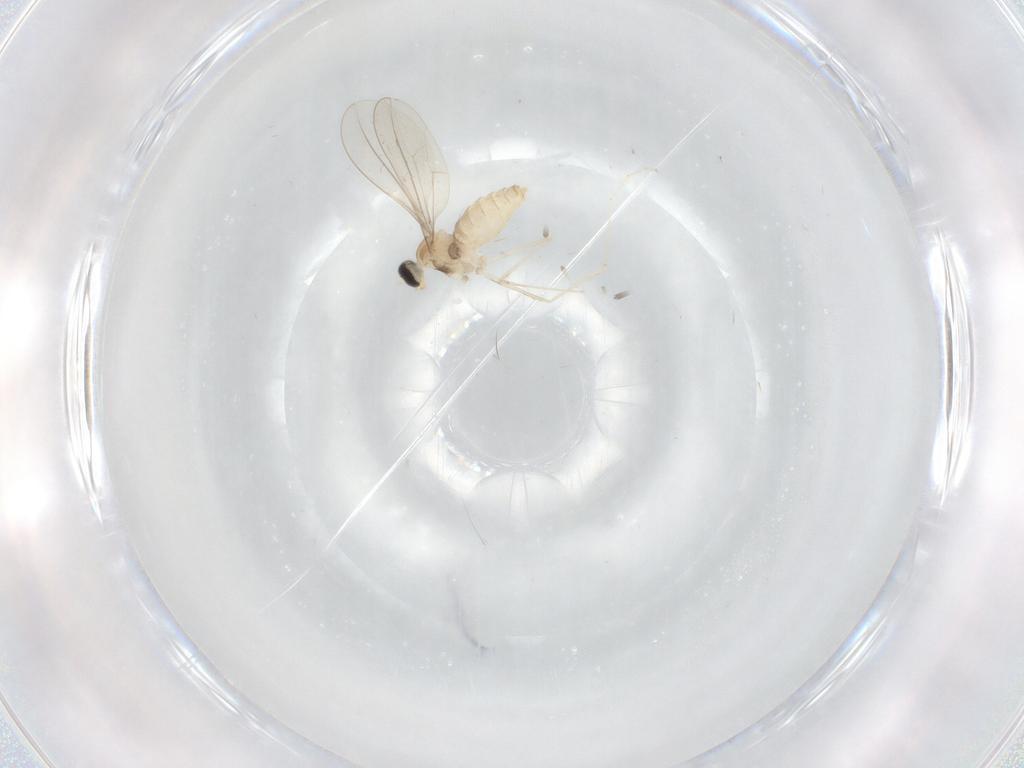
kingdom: Animalia
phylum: Arthropoda
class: Insecta
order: Diptera
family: Cecidomyiidae
